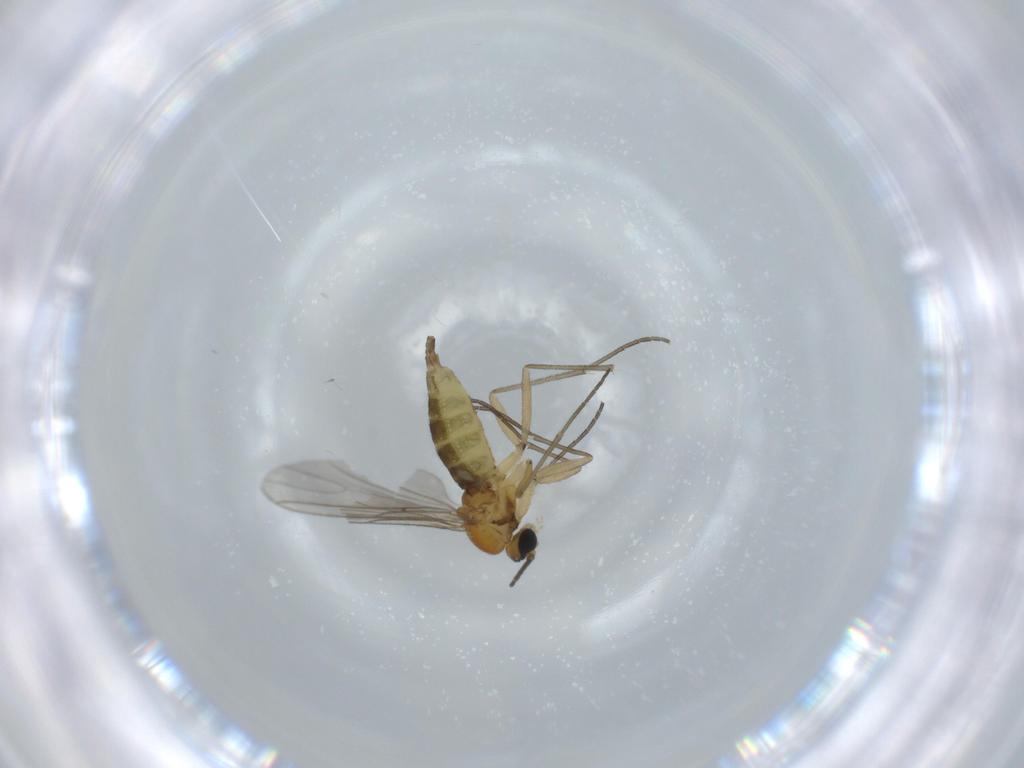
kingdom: Animalia
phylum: Arthropoda
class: Insecta
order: Diptera
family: Sciaridae
